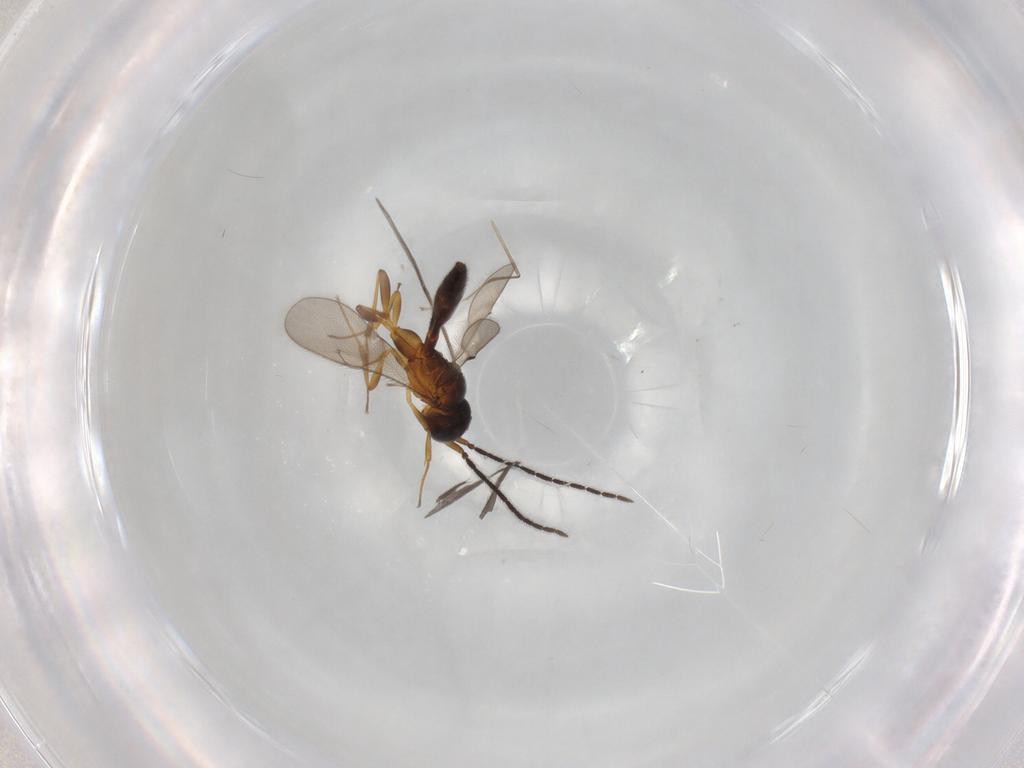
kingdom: Animalia
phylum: Arthropoda
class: Insecta
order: Hymenoptera
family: Scelionidae
